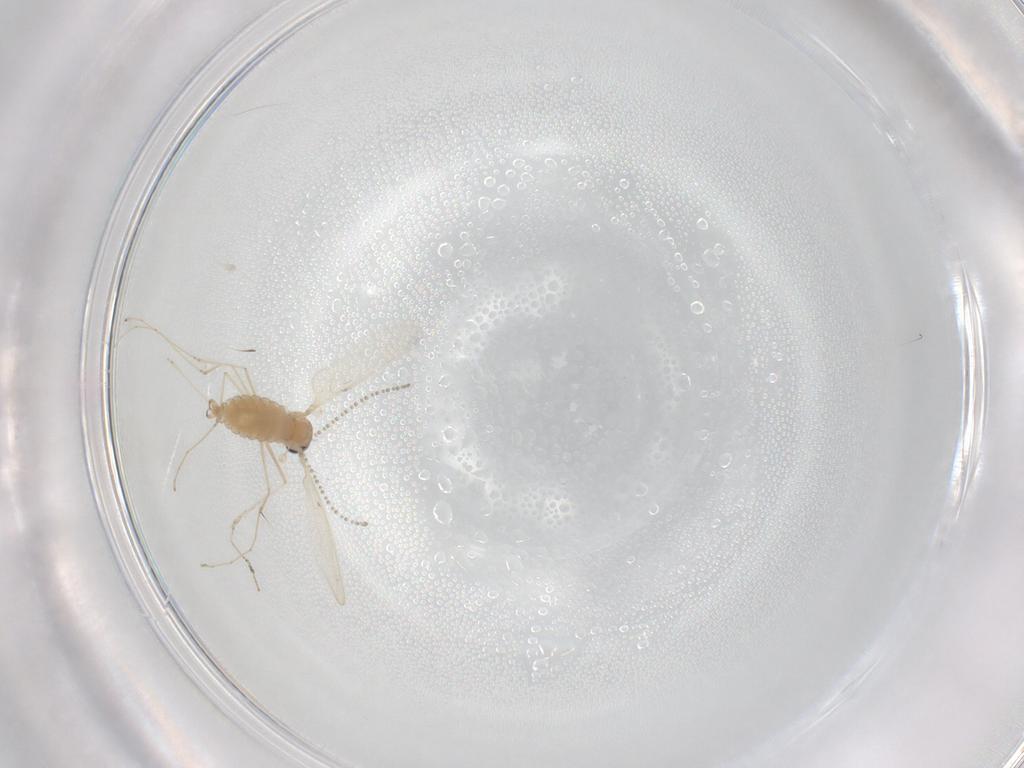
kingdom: Animalia
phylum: Arthropoda
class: Insecta
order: Diptera
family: Cecidomyiidae
